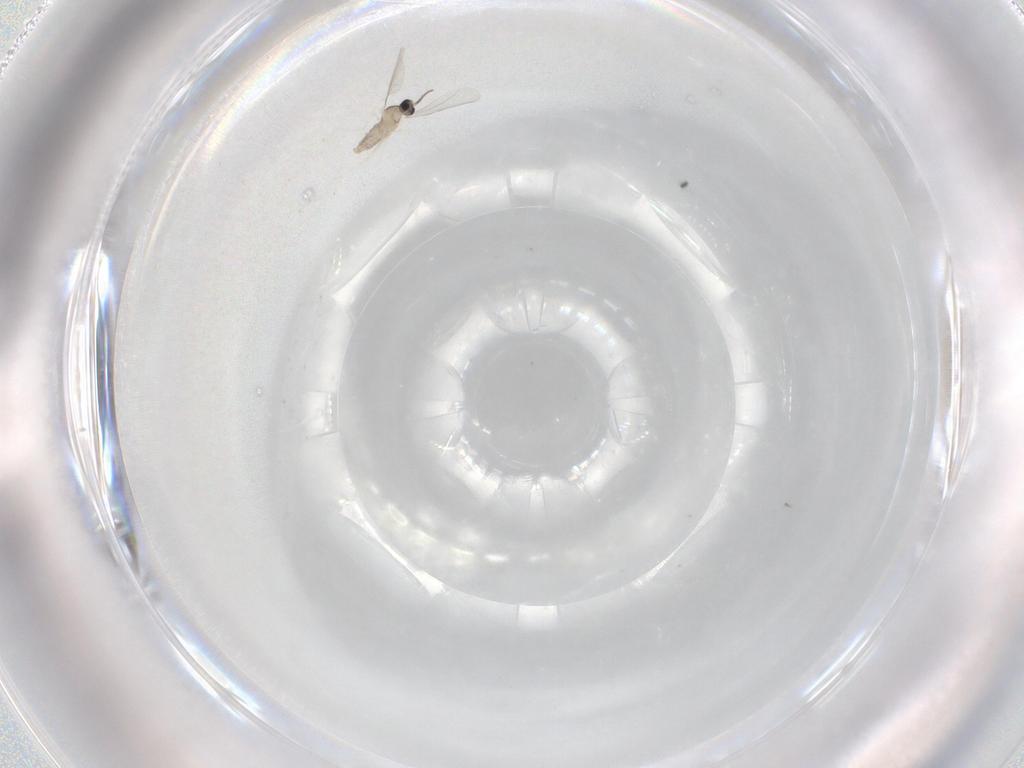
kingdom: Animalia
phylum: Arthropoda
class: Insecta
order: Diptera
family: Cecidomyiidae
